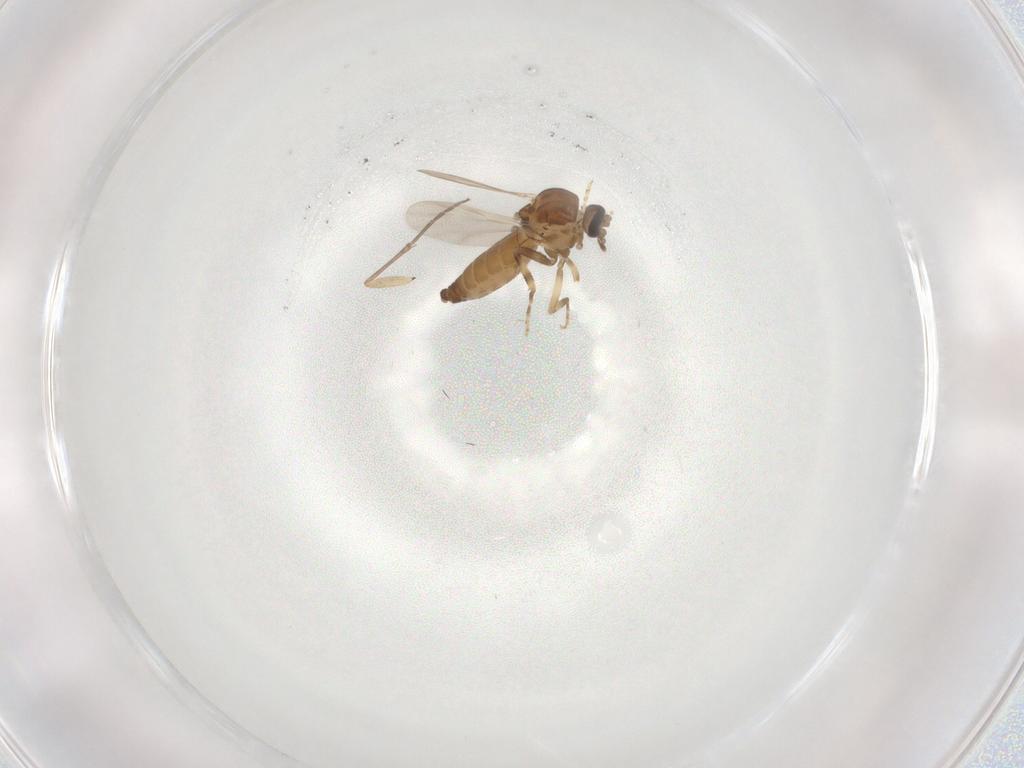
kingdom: Animalia
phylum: Arthropoda
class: Insecta
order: Diptera
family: Ceratopogonidae
